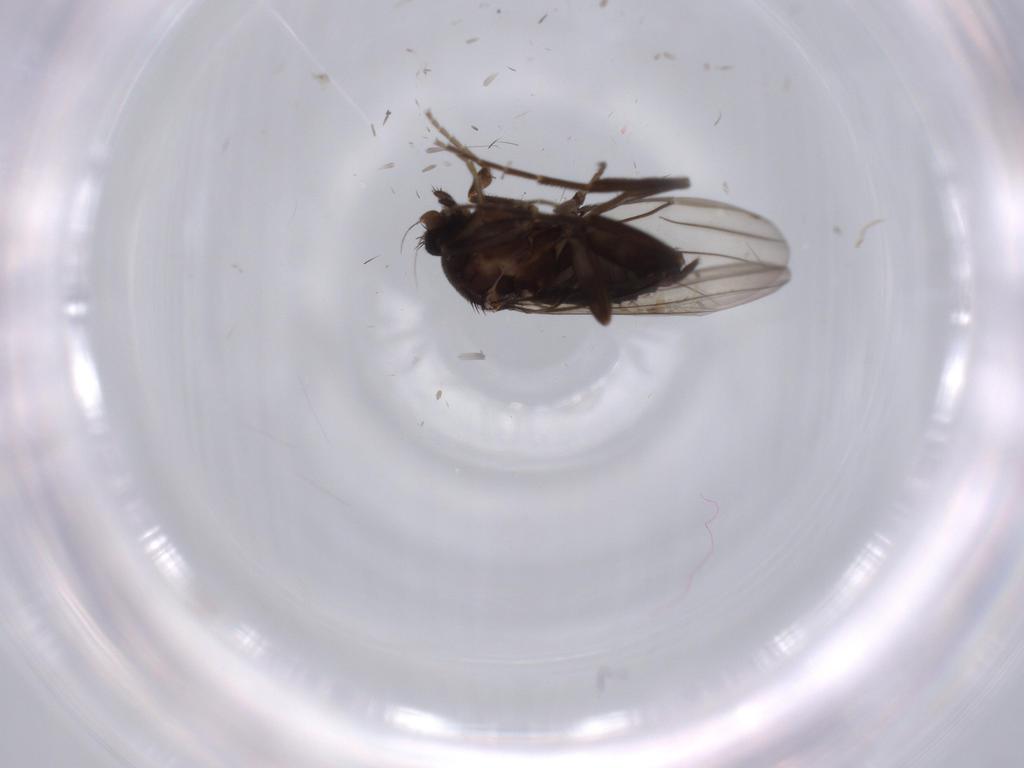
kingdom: Animalia
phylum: Arthropoda
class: Insecta
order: Diptera
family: Cecidomyiidae
